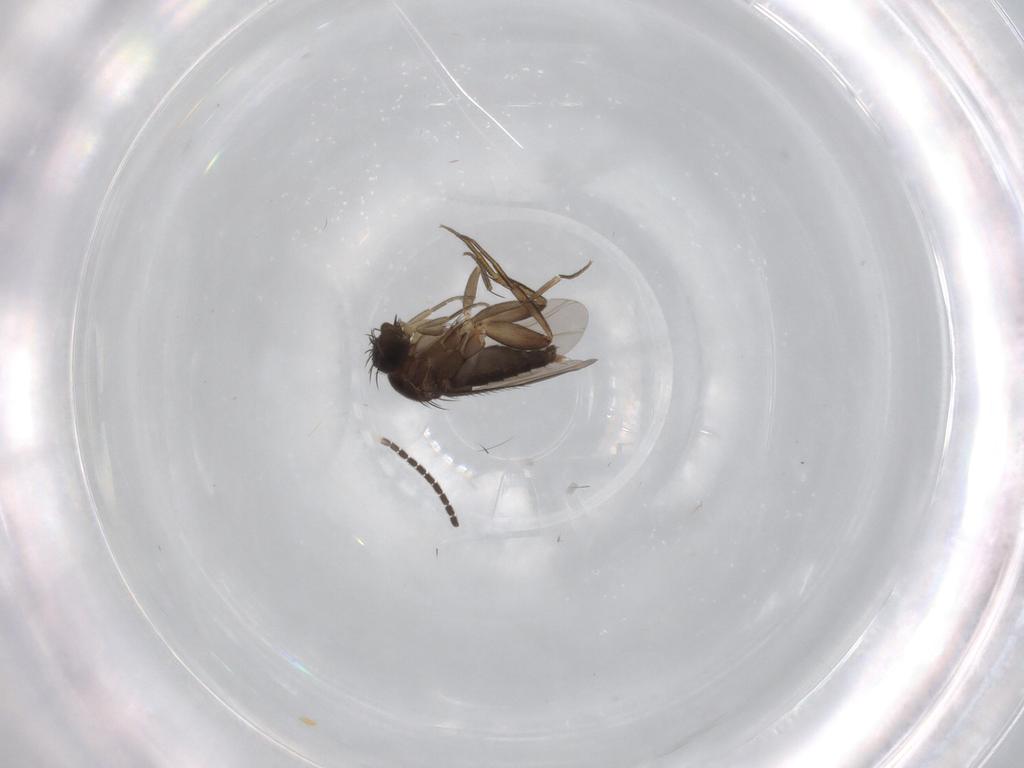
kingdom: Animalia
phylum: Arthropoda
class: Insecta
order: Diptera
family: Phoridae
